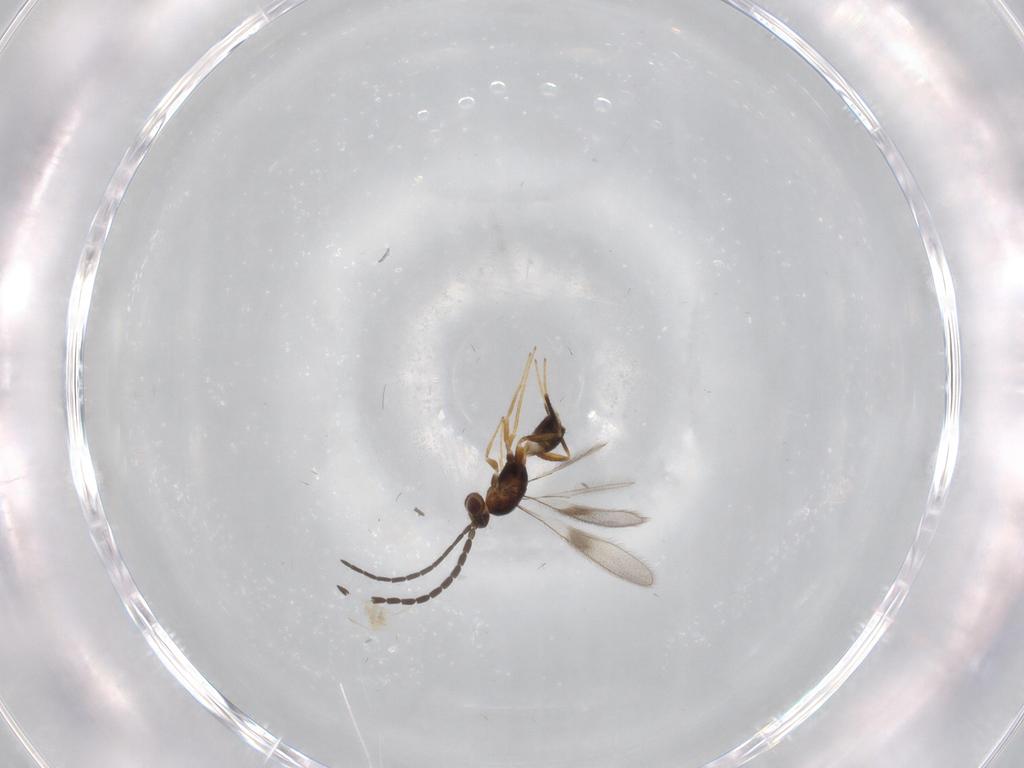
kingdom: Animalia
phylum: Arthropoda
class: Insecta
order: Hymenoptera
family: Mymaridae
